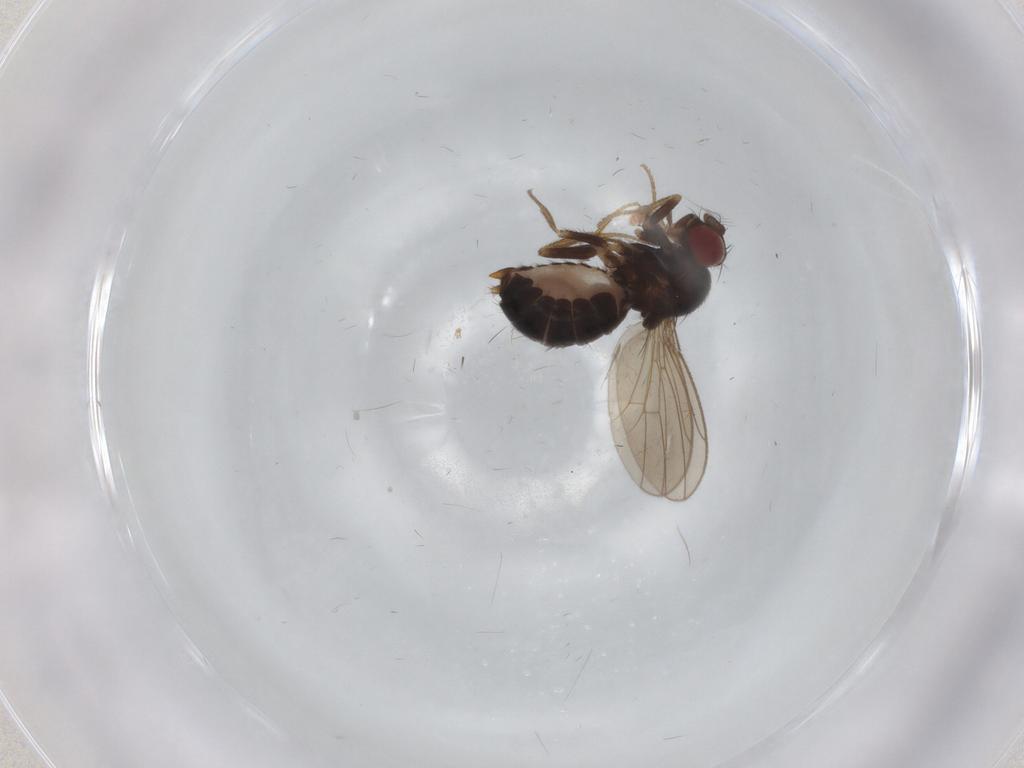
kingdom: Animalia
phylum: Arthropoda
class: Insecta
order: Diptera
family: Drosophilidae
